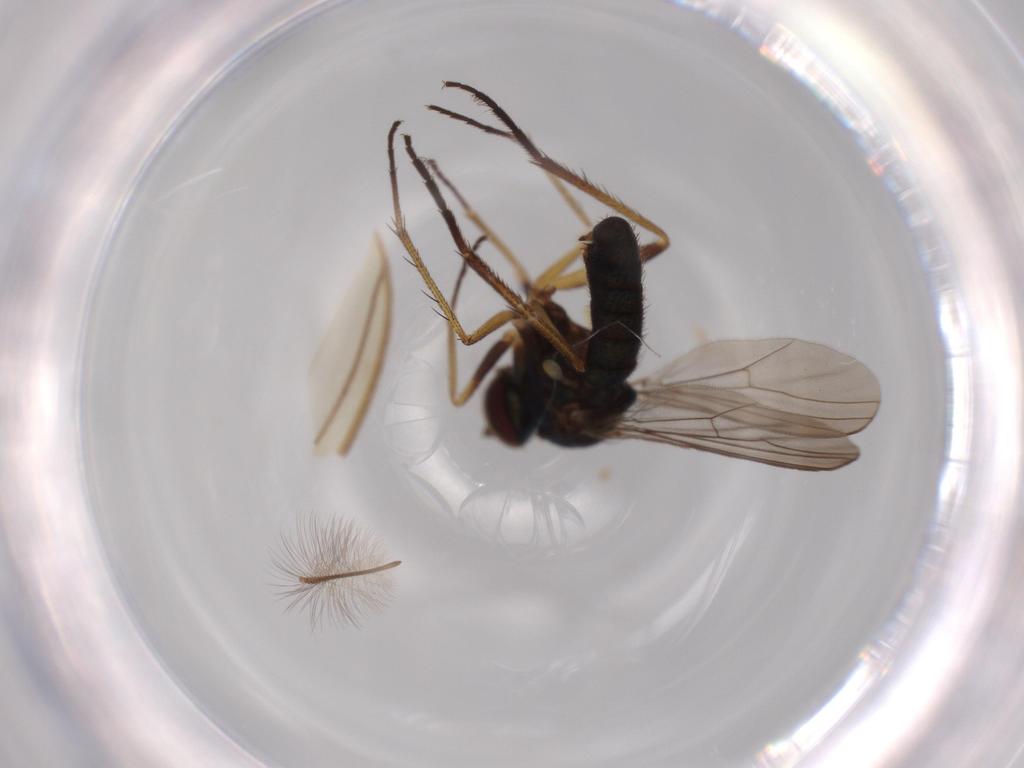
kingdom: Animalia
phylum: Arthropoda
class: Insecta
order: Diptera
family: Dolichopodidae
